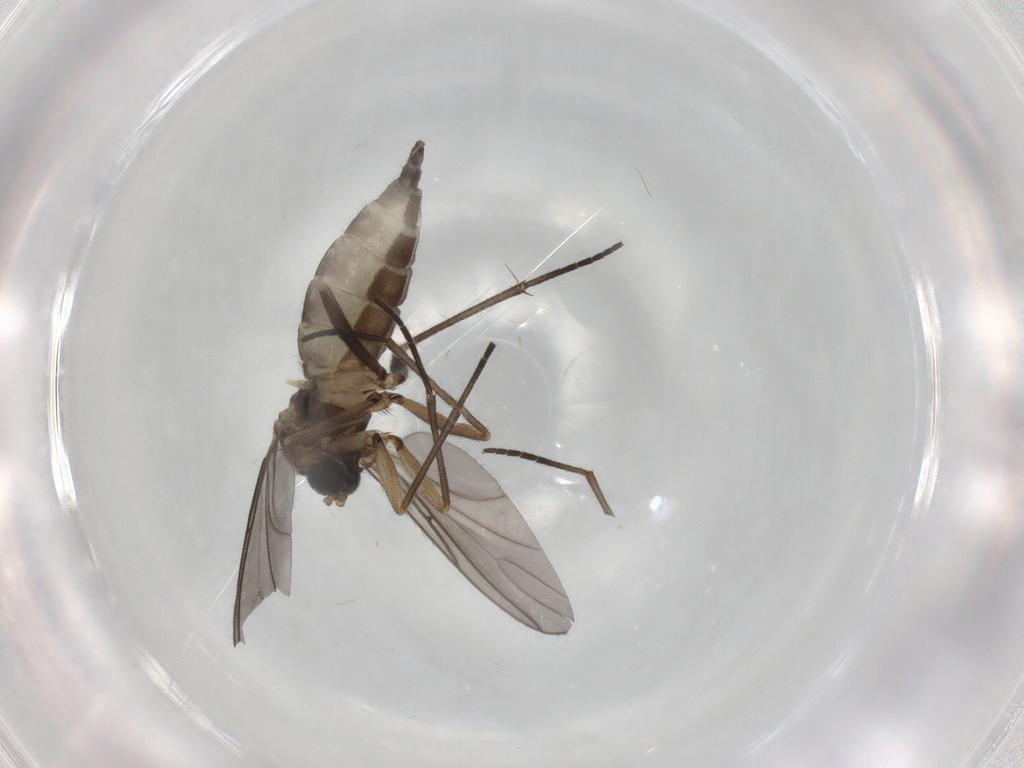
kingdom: Animalia
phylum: Arthropoda
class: Insecta
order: Diptera
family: Sciaridae
